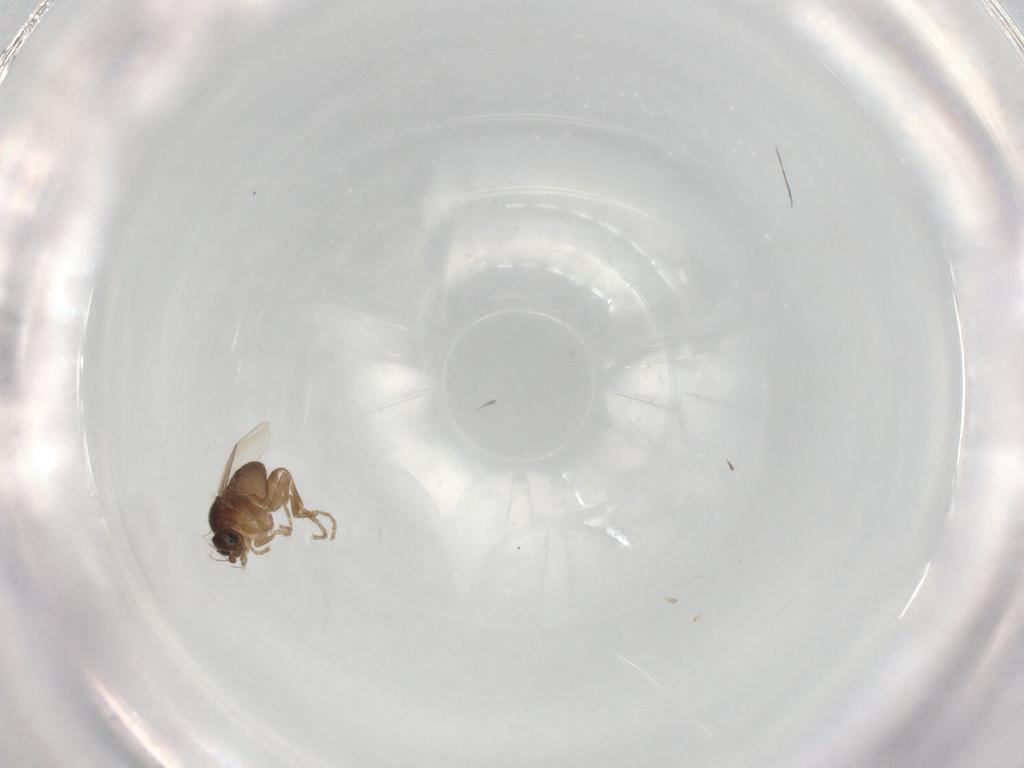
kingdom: Animalia
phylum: Arthropoda
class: Insecta
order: Diptera
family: Phoridae
